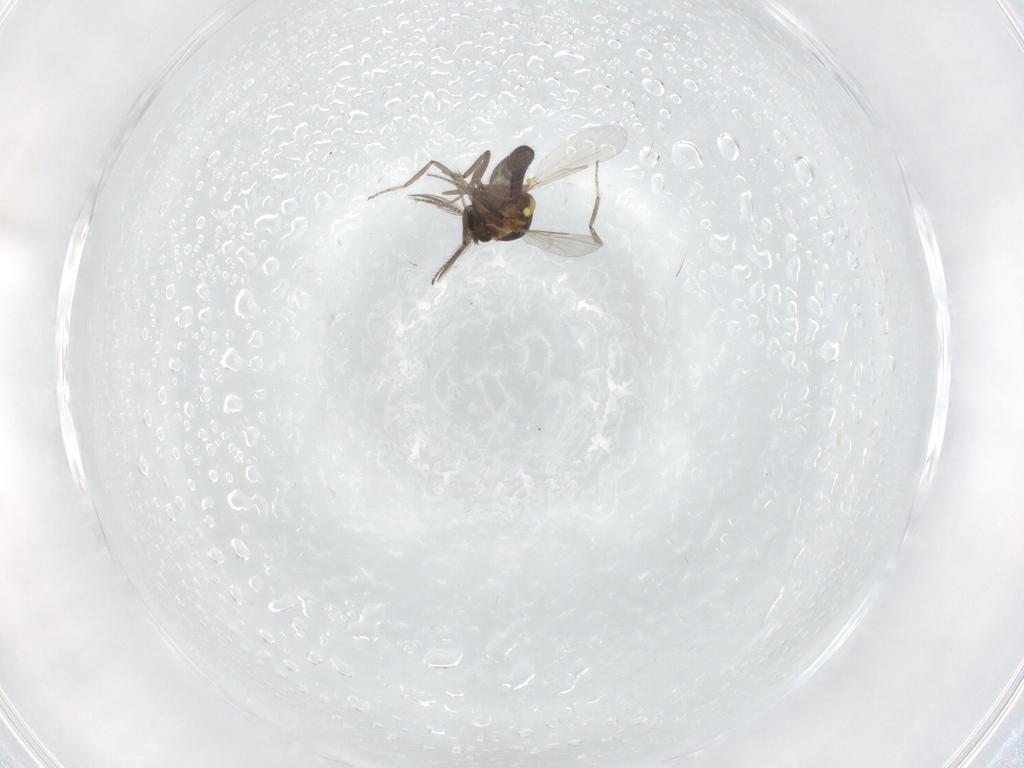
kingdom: Animalia
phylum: Arthropoda
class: Insecta
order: Diptera
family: Ceratopogonidae
